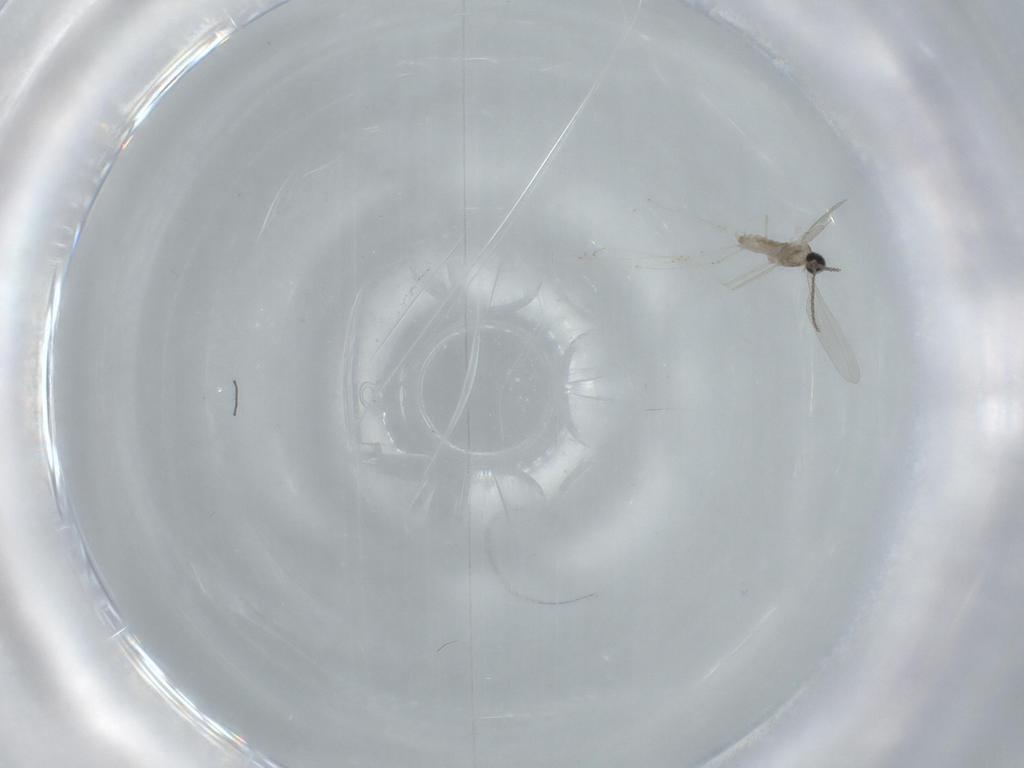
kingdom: Animalia
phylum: Arthropoda
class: Insecta
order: Diptera
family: Sciaridae
